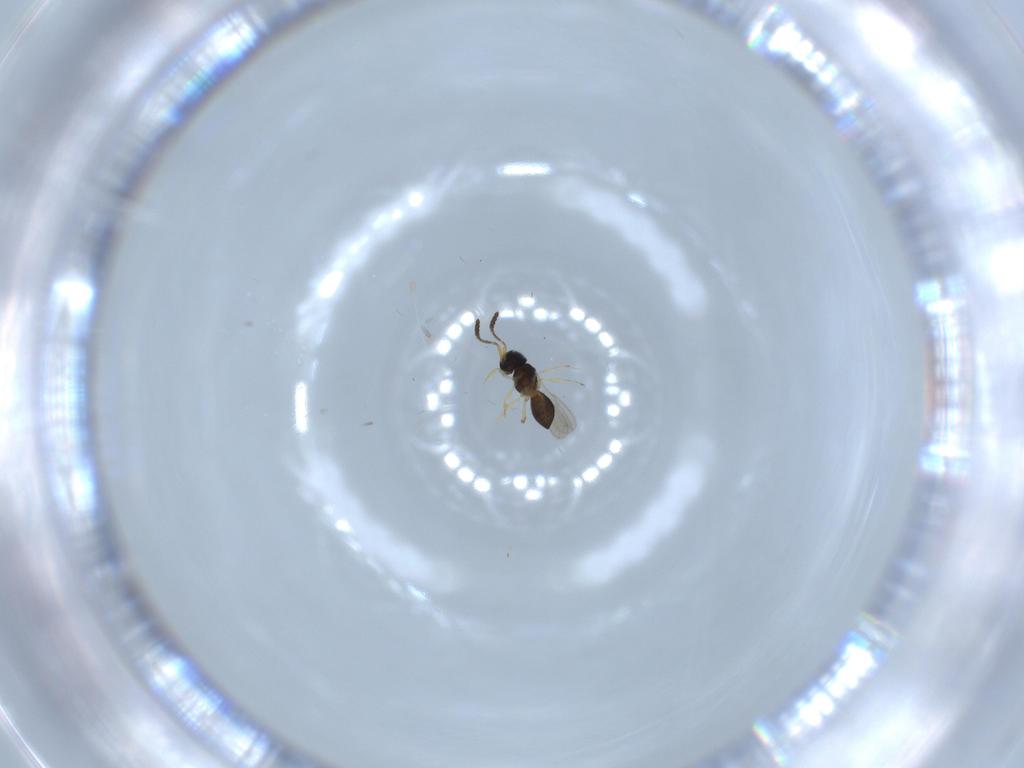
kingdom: Animalia
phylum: Arthropoda
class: Insecta
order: Hymenoptera
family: Scelionidae
